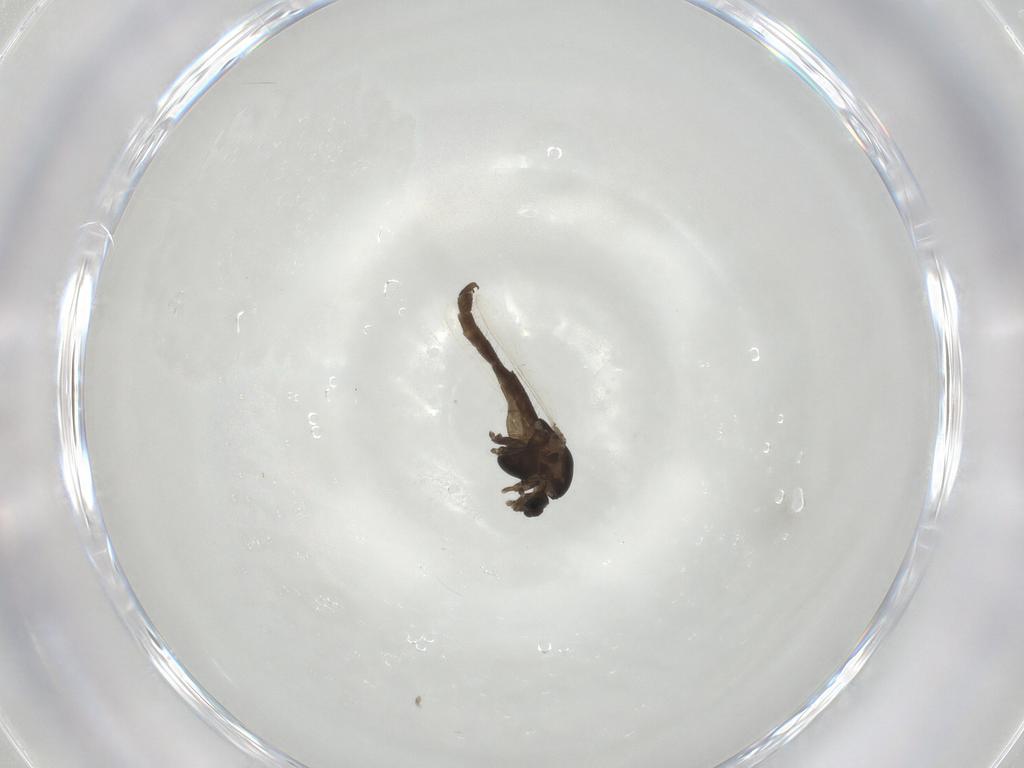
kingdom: Animalia
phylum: Arthropoda
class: Insecta
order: Diptera
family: Chironomidae
